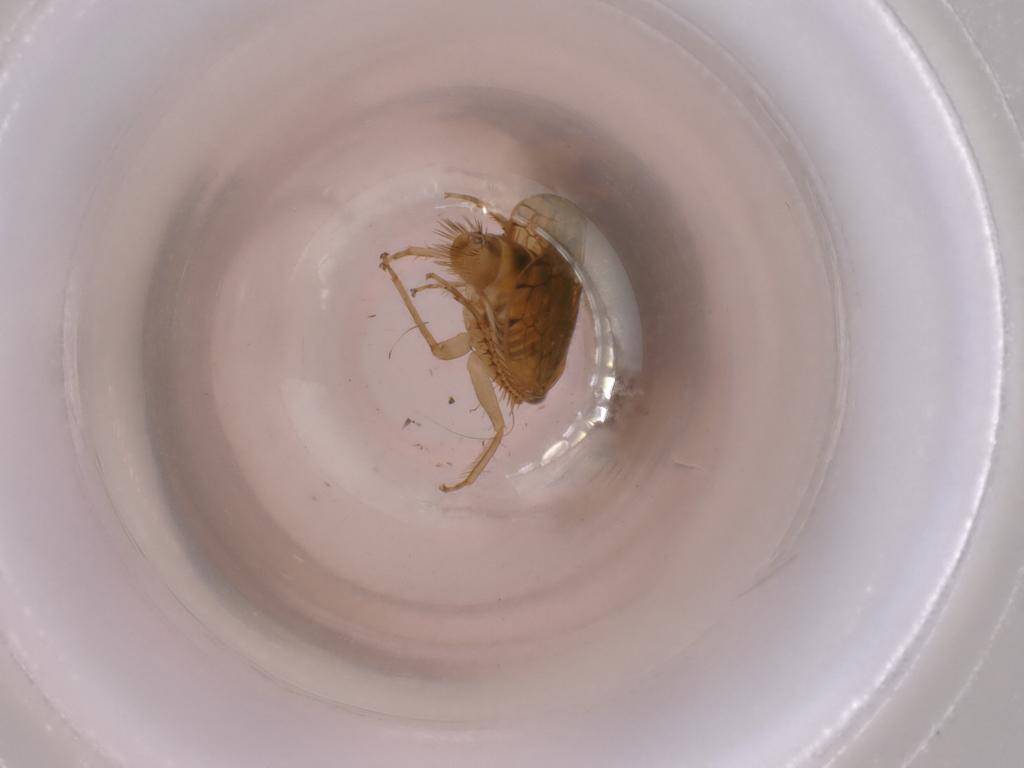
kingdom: Animalia
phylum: Arthropoda
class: Insecta
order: Hemiptera
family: Cicadellidae
